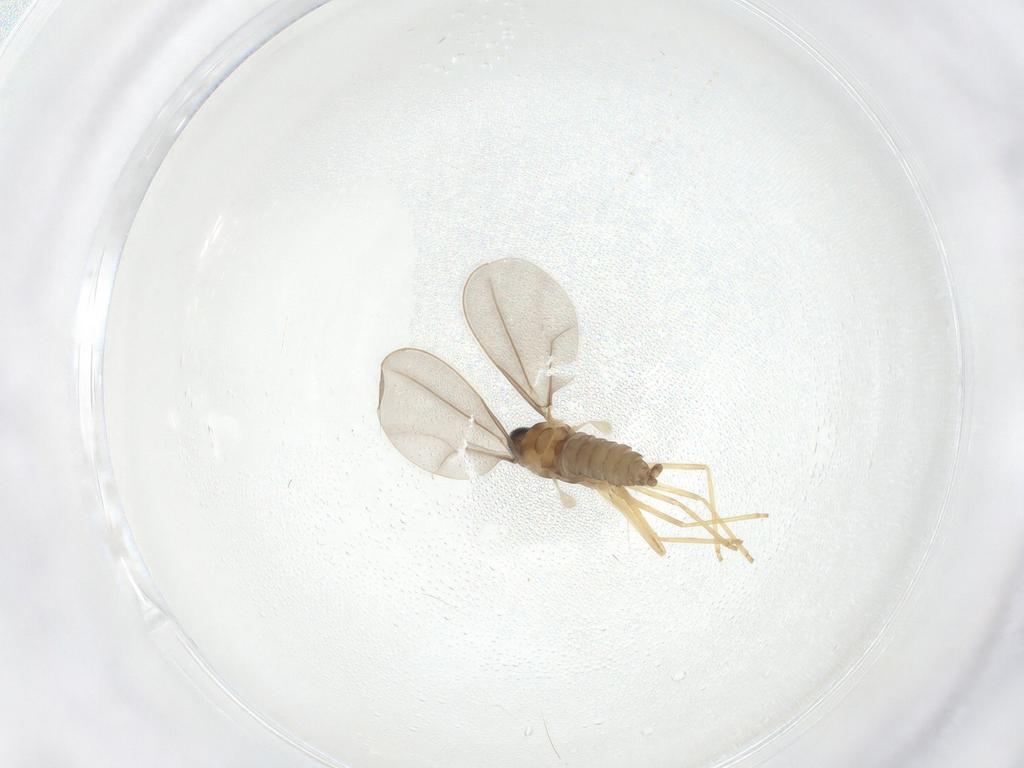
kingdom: Animalia
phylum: Arthropoda
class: Insecta
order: Diptera
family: Cecidomyiidae
